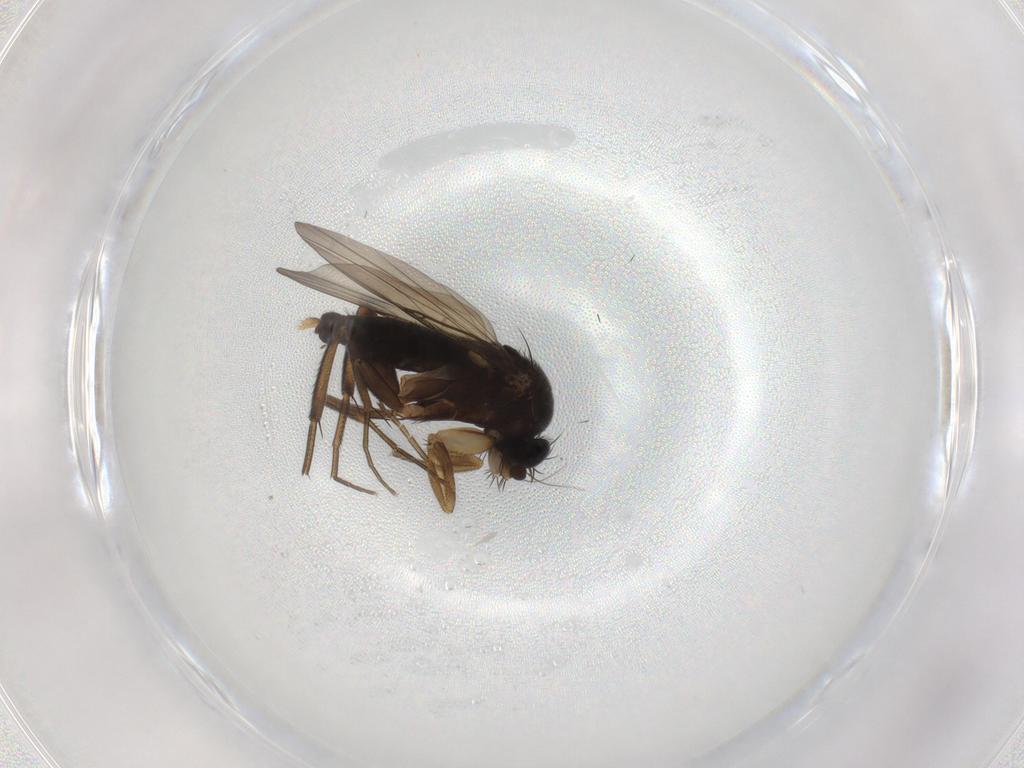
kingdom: Animalia
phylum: Arthropoda
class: Insecta
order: Diptera
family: Phoridae
